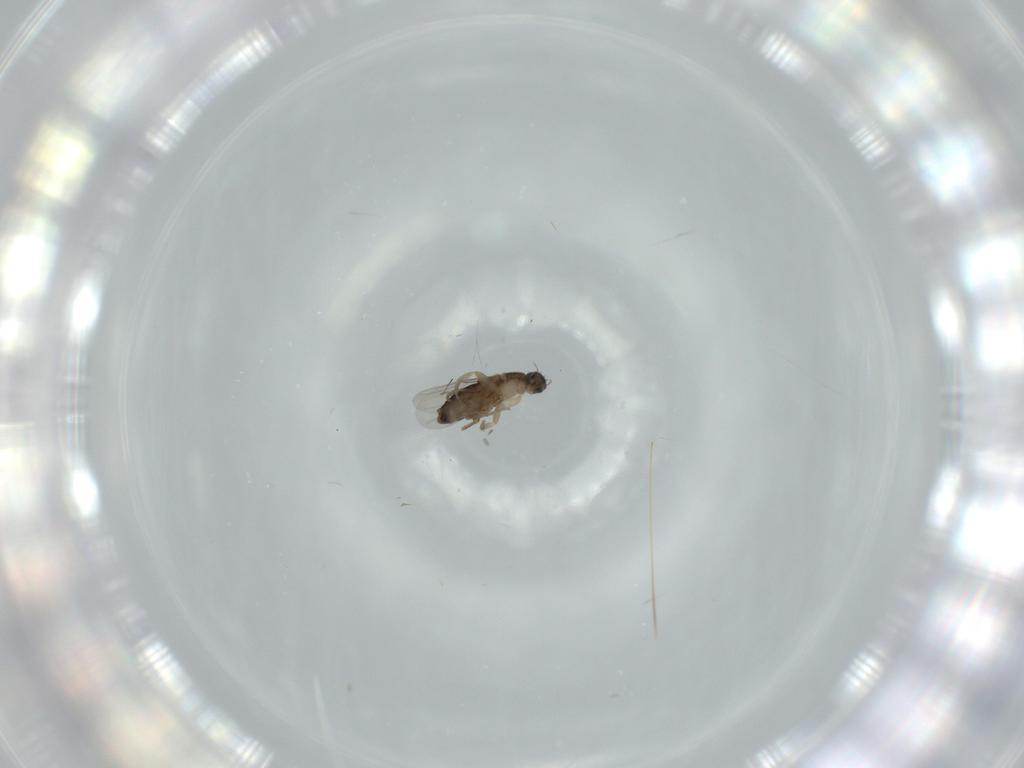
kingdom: Animalia
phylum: Arthropoda
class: Insecta
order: Diptera
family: Phoridae
